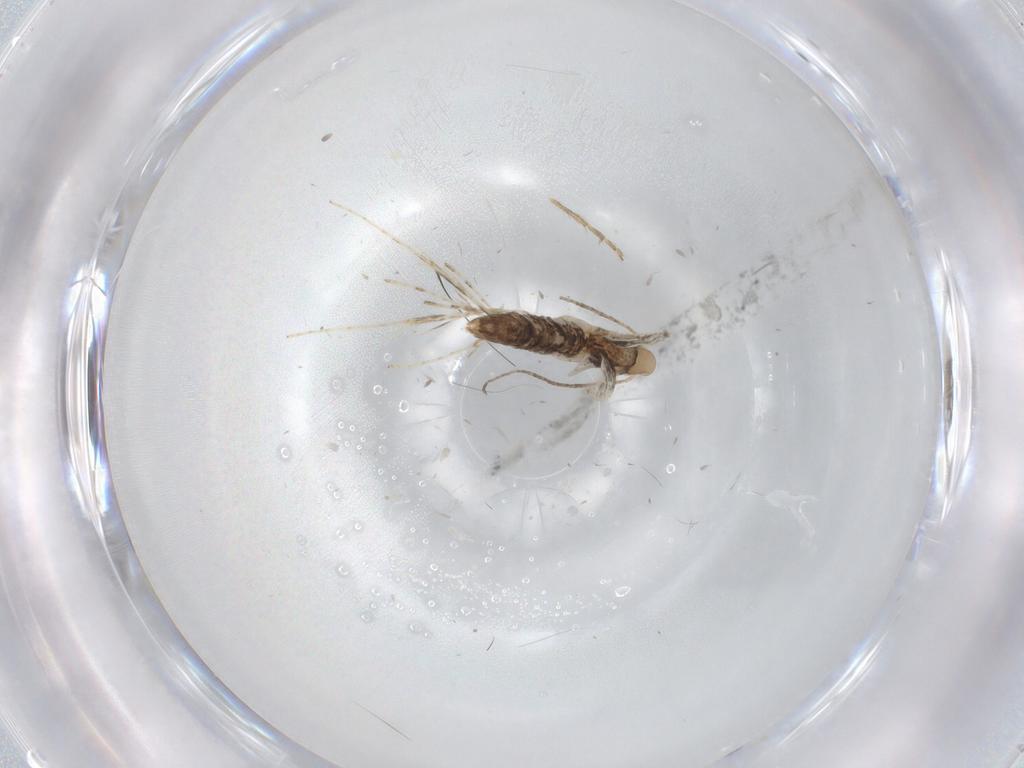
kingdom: Animalia
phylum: Arthropoda
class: Insecta
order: Lepidoptera
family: Gracillariidae
